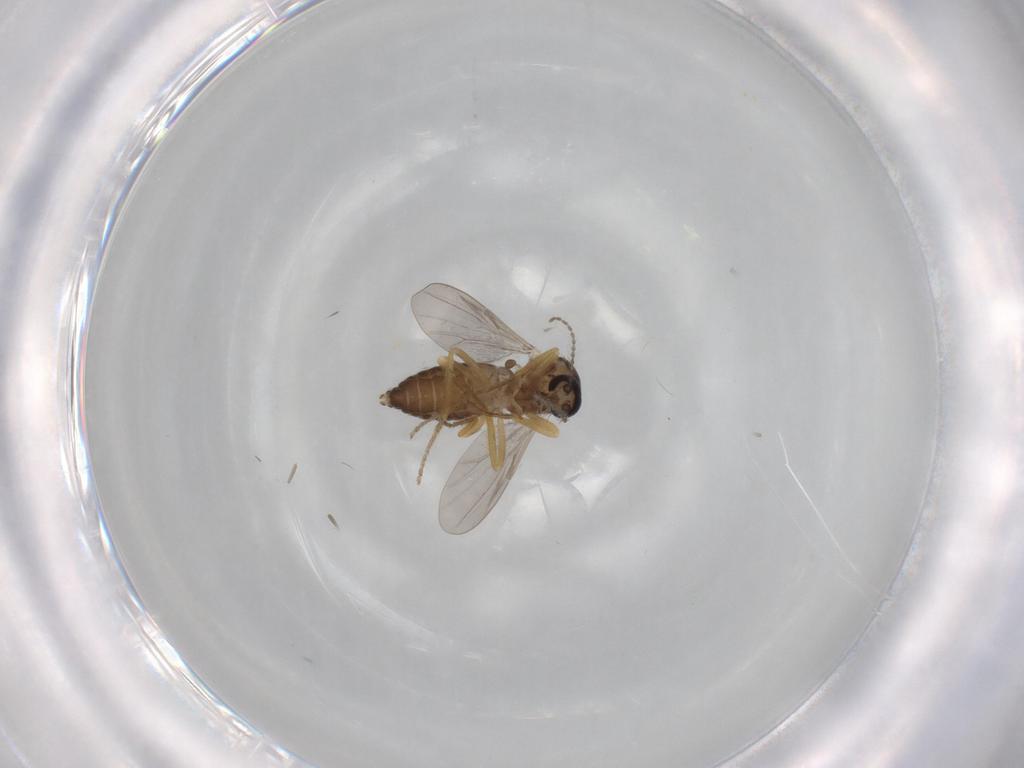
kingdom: Animalia
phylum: Arthropoda
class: Insecta
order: Diptera
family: Ceratopogonidae
